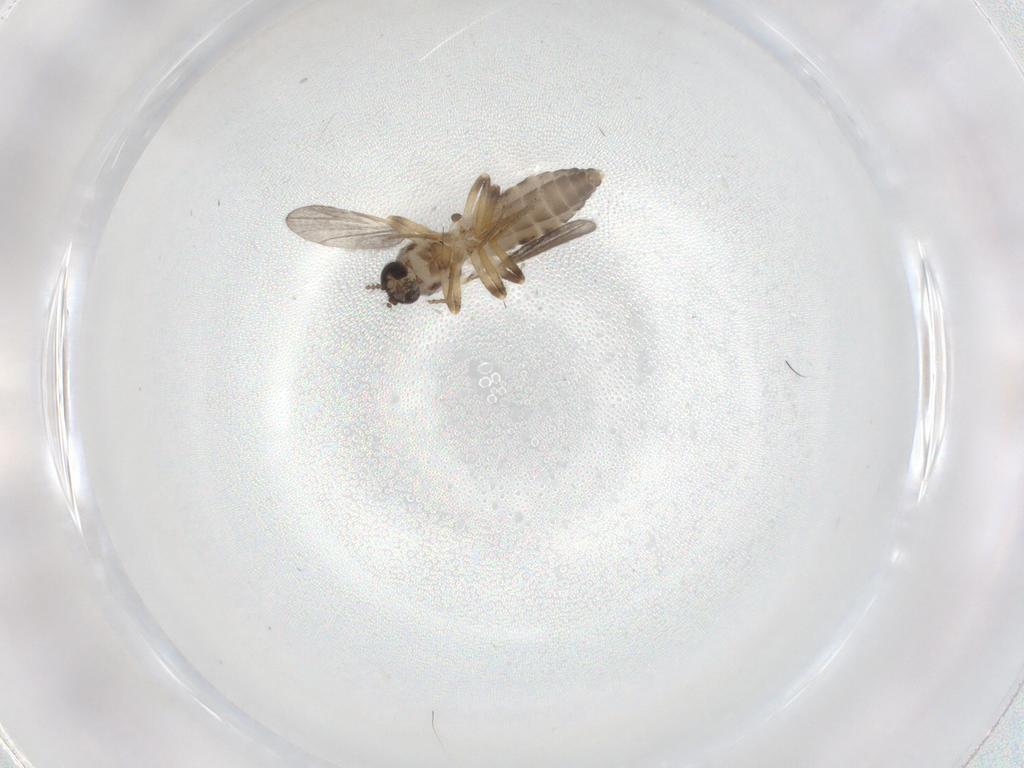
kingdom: Animalia
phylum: Arthropoda
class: Insecta
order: Diptera
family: Ceratopogonidae
